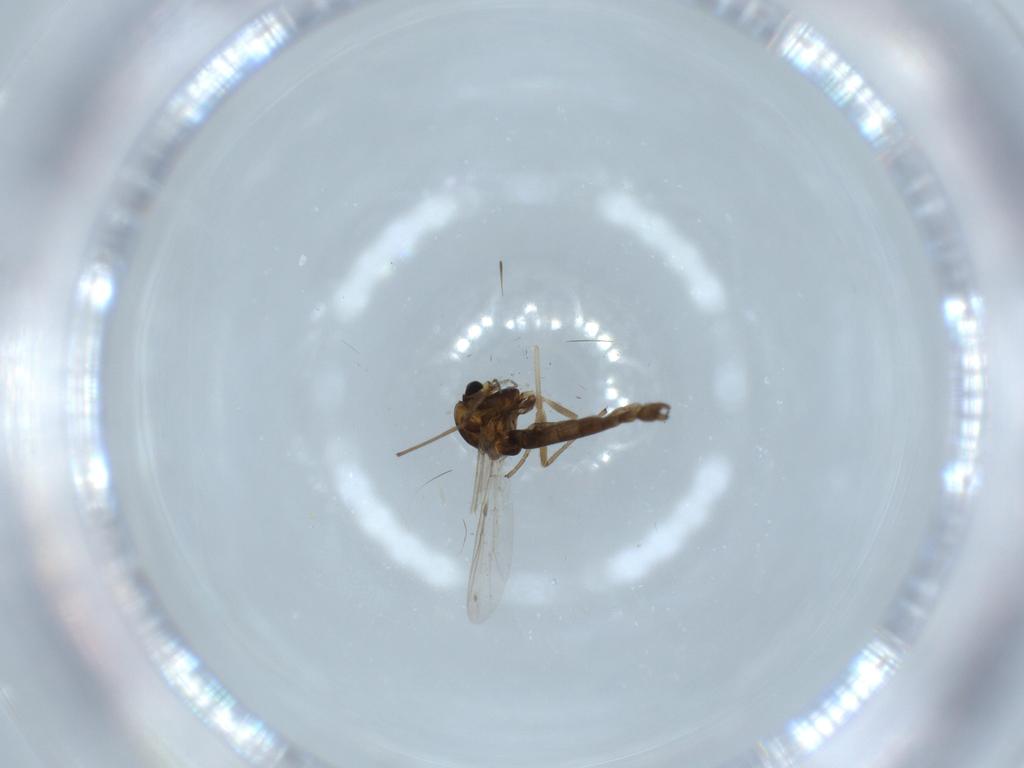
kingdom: Animalia
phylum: Arthropoda
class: Insecta
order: Diptera
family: Chironomidae
